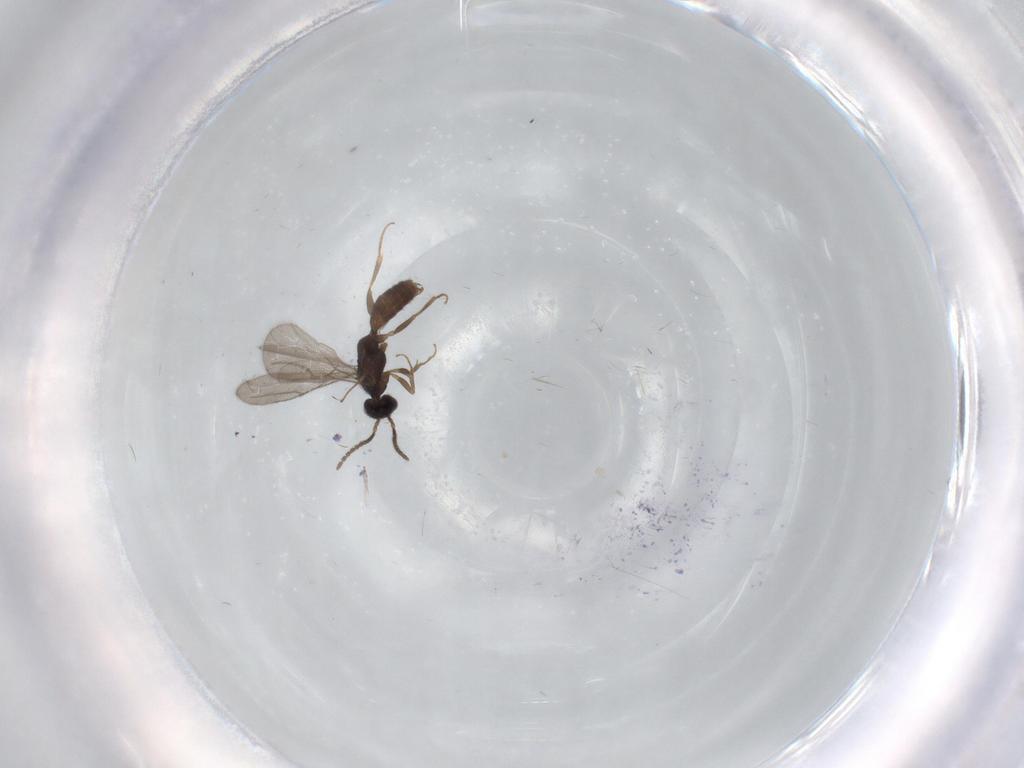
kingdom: Animalia
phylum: Arthropoda
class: Insecta
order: Hymenoptera
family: Bethylidae
